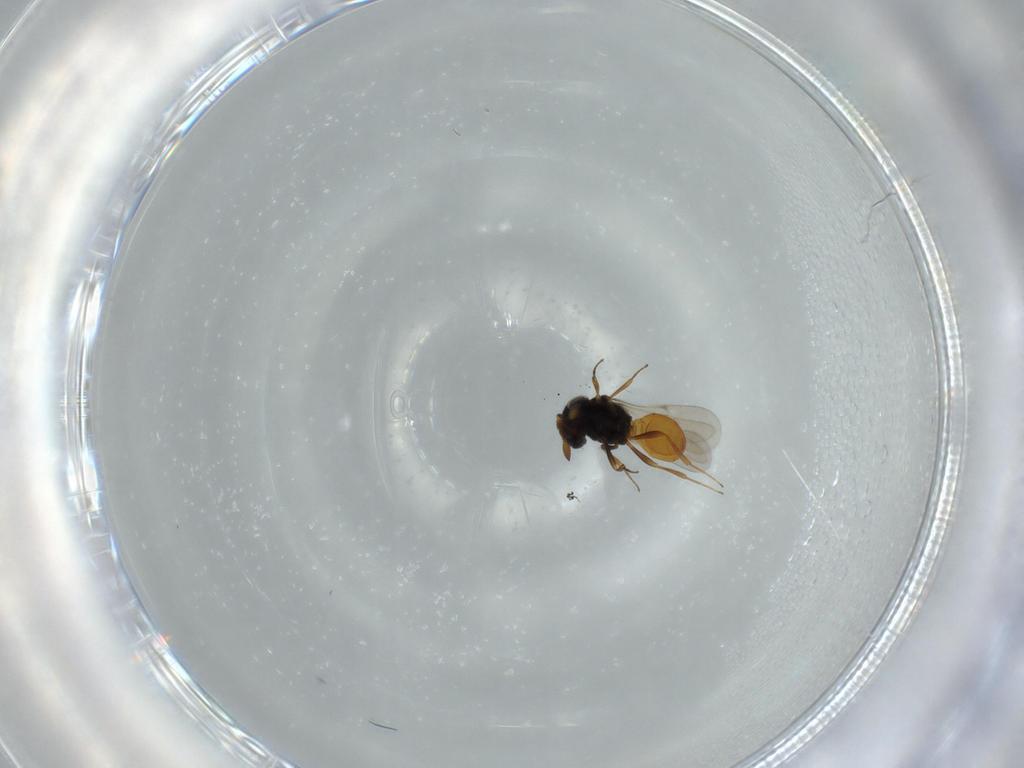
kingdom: Animalia
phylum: Arthropoda
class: Insecta
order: Hymenoptera
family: Scelionidae
